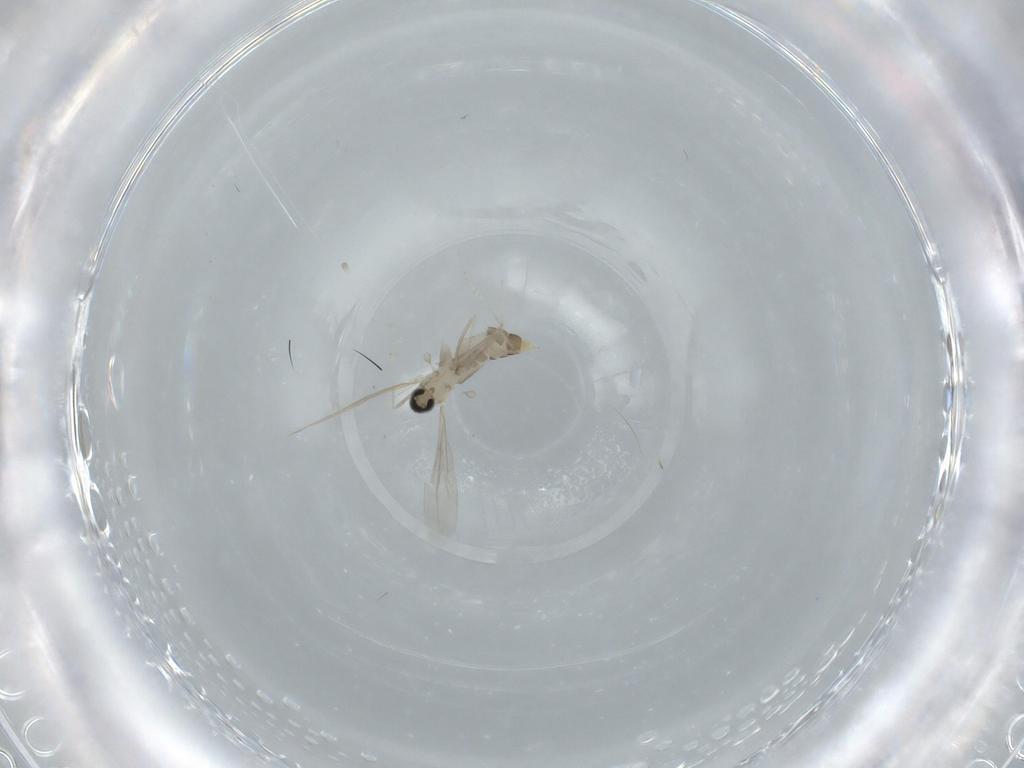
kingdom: Animalia
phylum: Arthropoda
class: Insecta
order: Diptera
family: Cecidomyiidae
